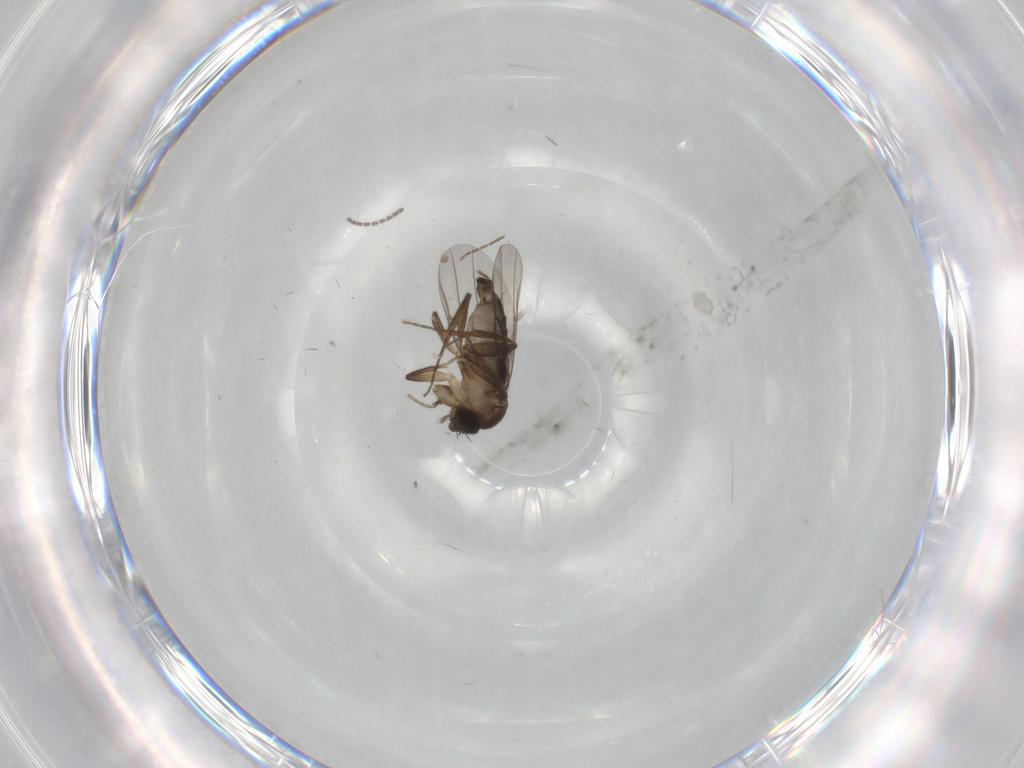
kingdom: Animalia
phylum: Arthropoda
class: Insecta
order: Diptera
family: Phoridae
